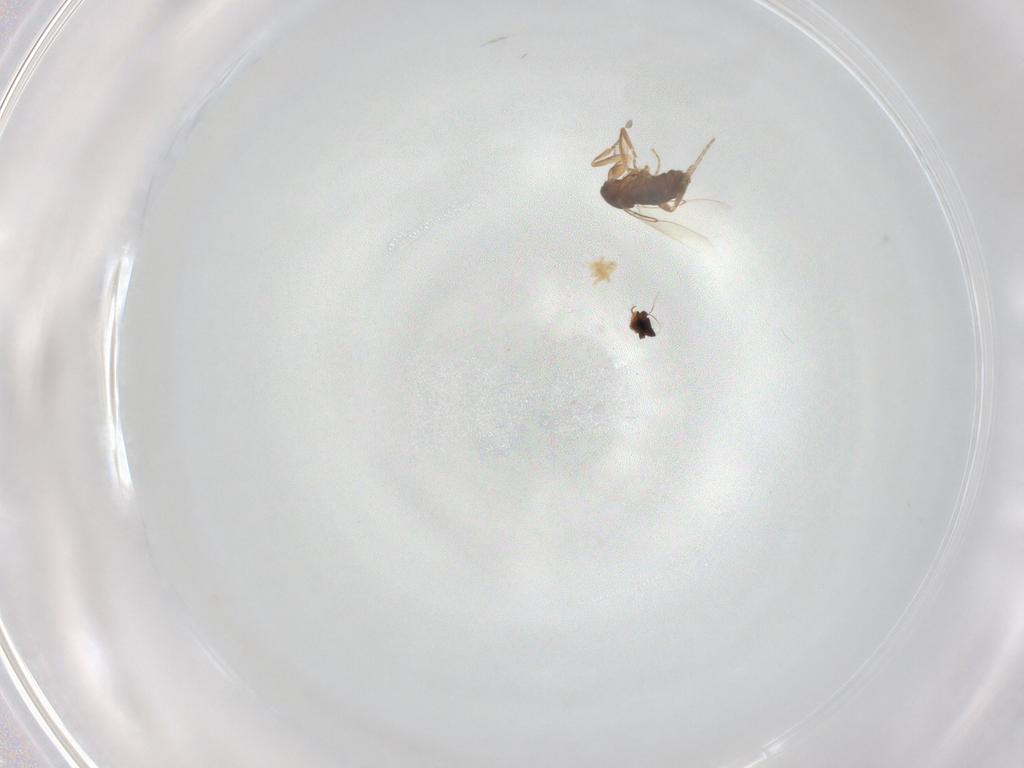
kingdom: Animalia
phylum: Arthropoda
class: Insecta
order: Diptera
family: Phoridae
